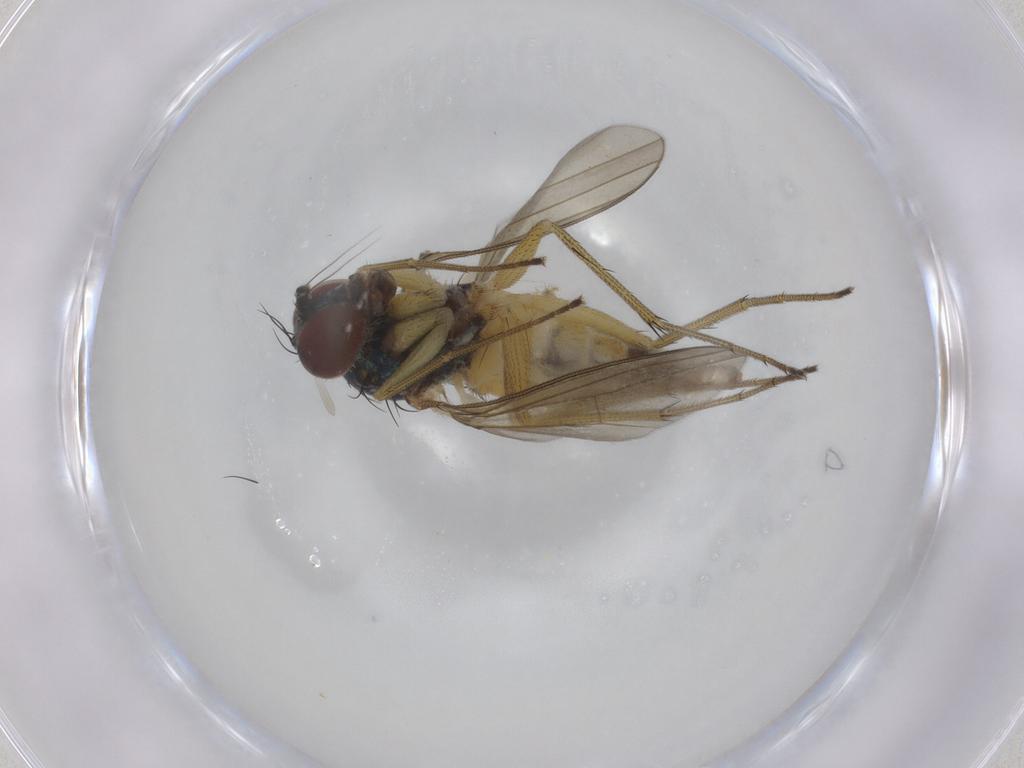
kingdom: Animalia
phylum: Arthropoda
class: Insecta
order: Diptera
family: Dolichopodidae
